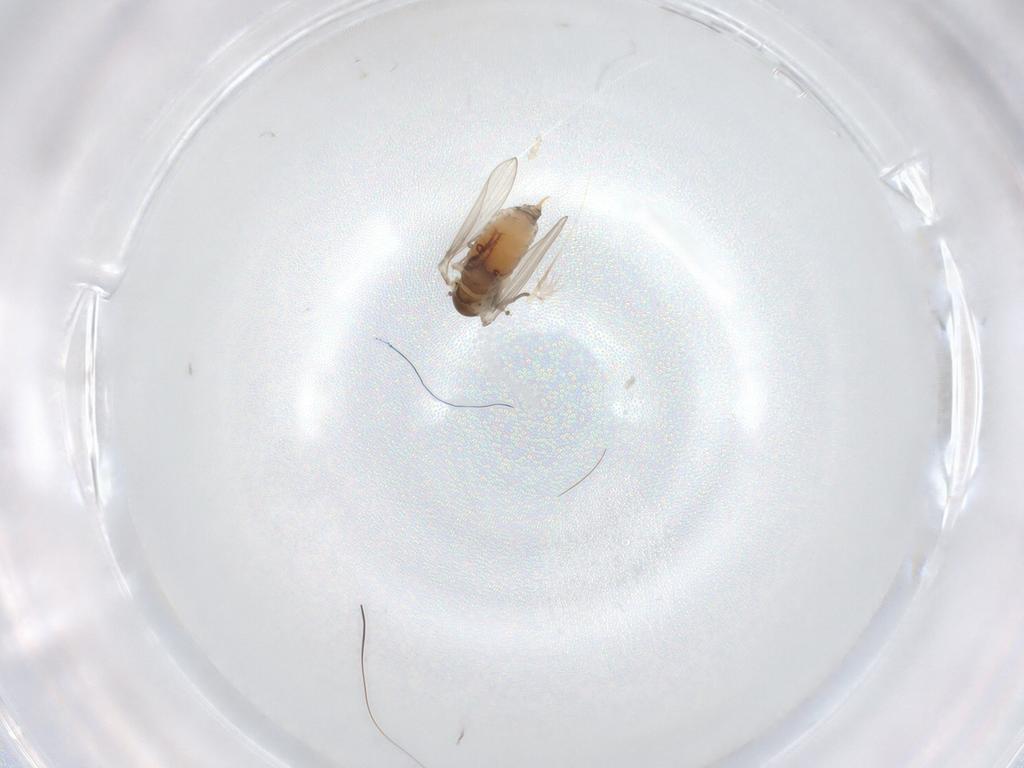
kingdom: Animalia
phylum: Arthropoda
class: Insecta
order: Diptera
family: Psychodidae
